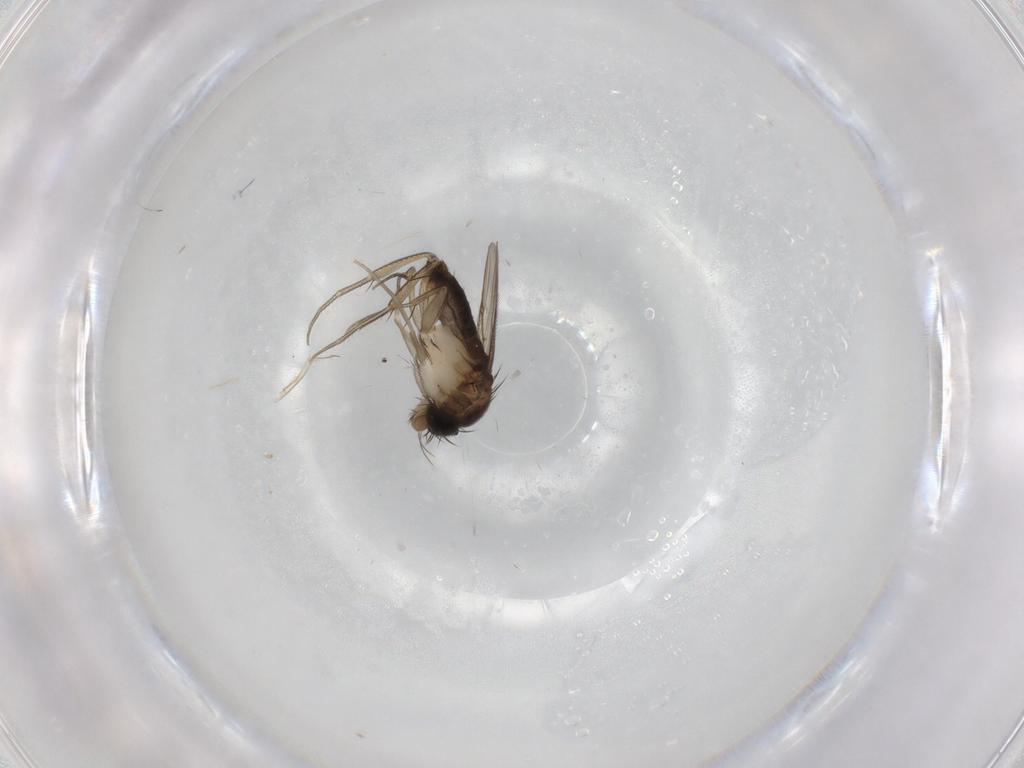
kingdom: Animalia
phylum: Arthropoda
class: Insecta
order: Diptera
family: Phoridae
